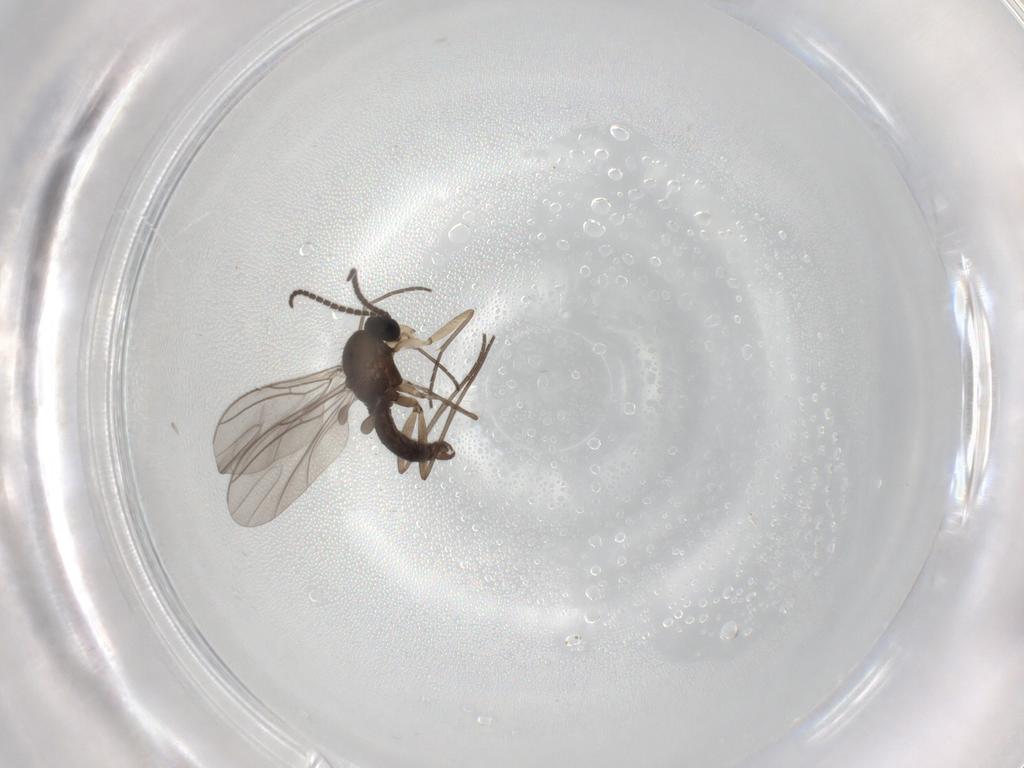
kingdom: Animalia
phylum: Arthropoda
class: Insecta
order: Diptera
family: Sciaridae
